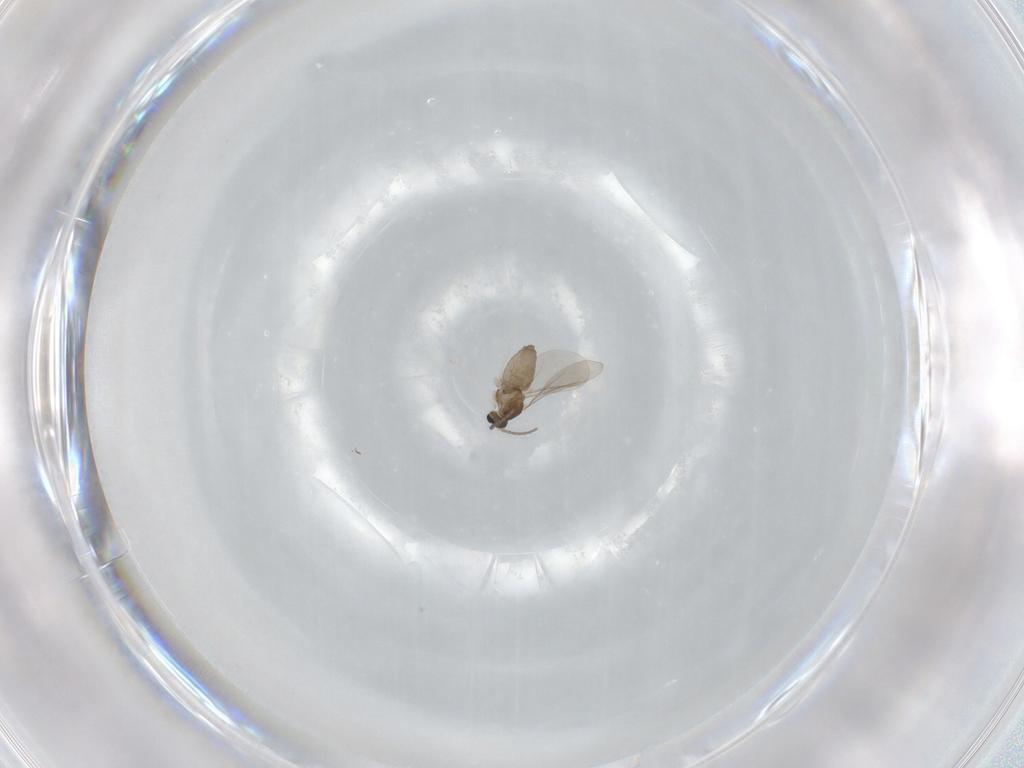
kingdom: Animalia
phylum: Arthropoda
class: Insecta
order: Diptera
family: Cecidomyiidae
